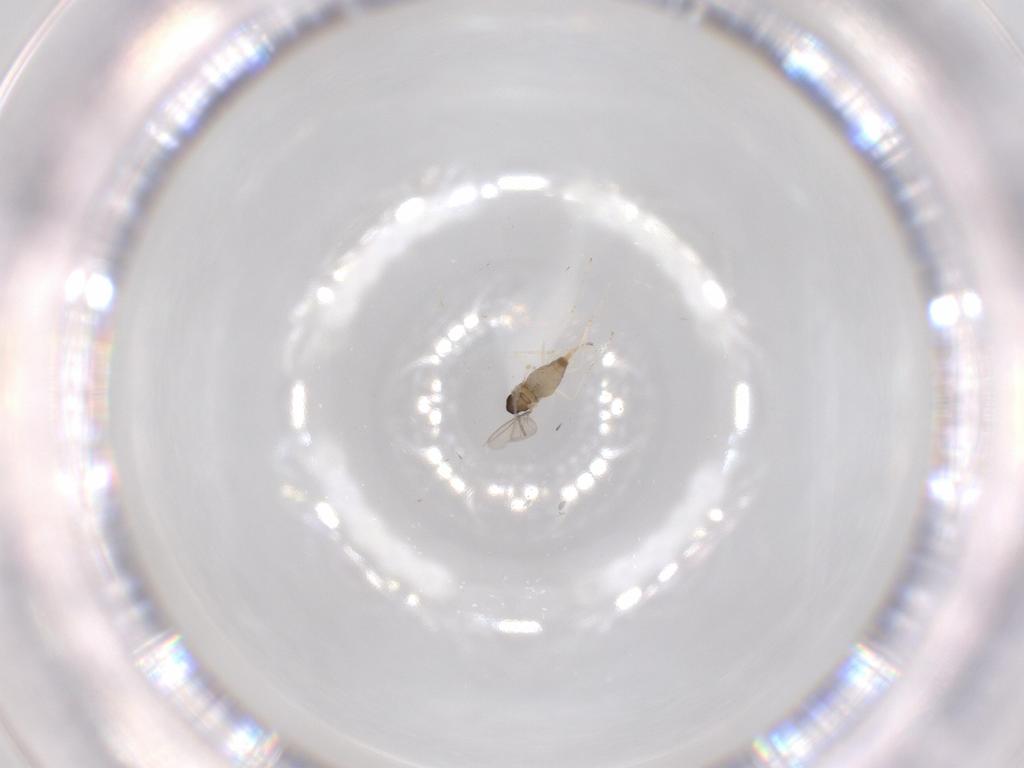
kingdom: Animalia
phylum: Arthropoda
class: Insecta
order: Diptera
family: Cecidomyiidae
